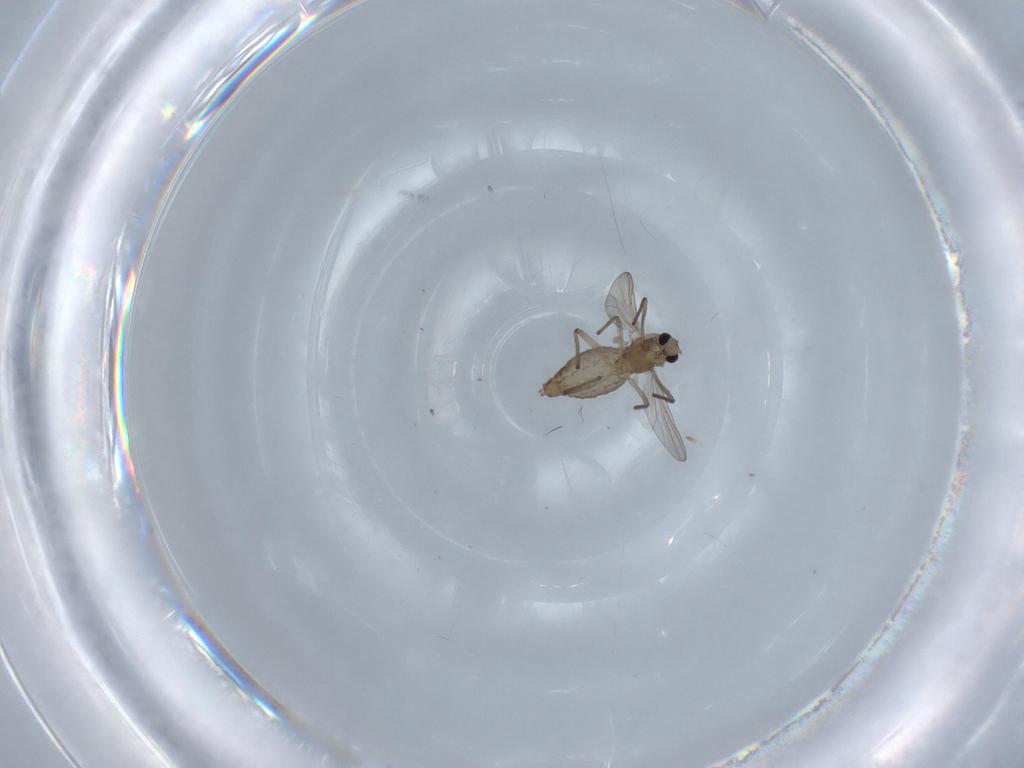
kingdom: Animalia
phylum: Arthropoda
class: Insecta
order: Diptera
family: Chironomidae
